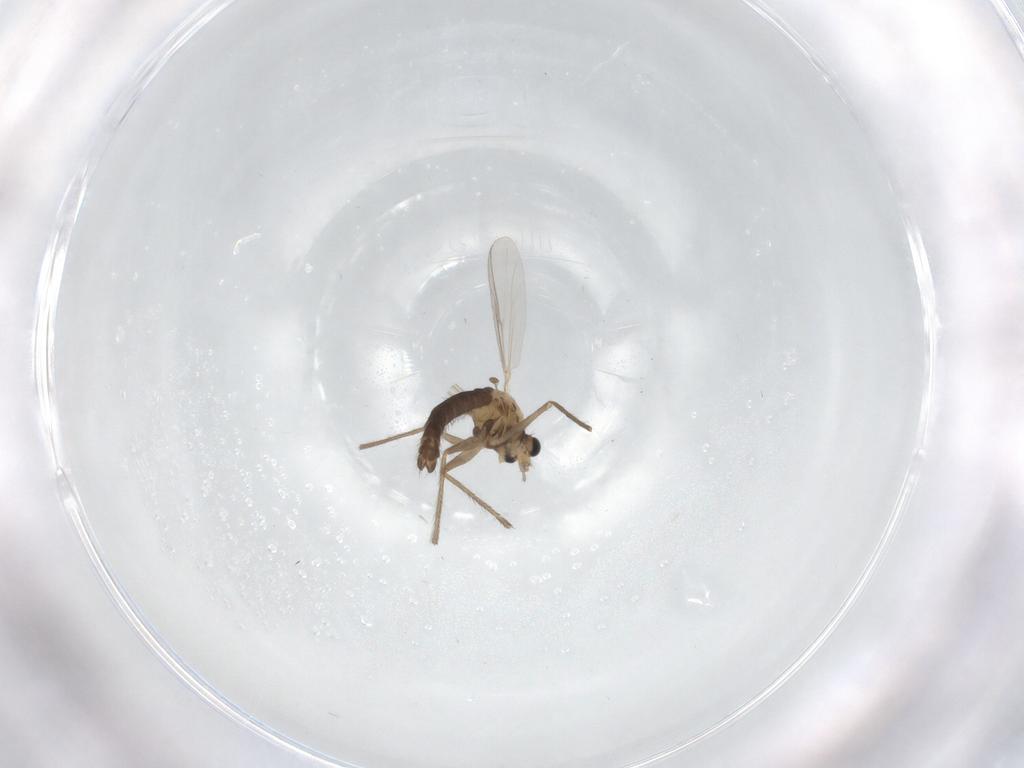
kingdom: Animalia
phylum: Arthropoda
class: Insecta
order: Diptera
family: Chironomidae
